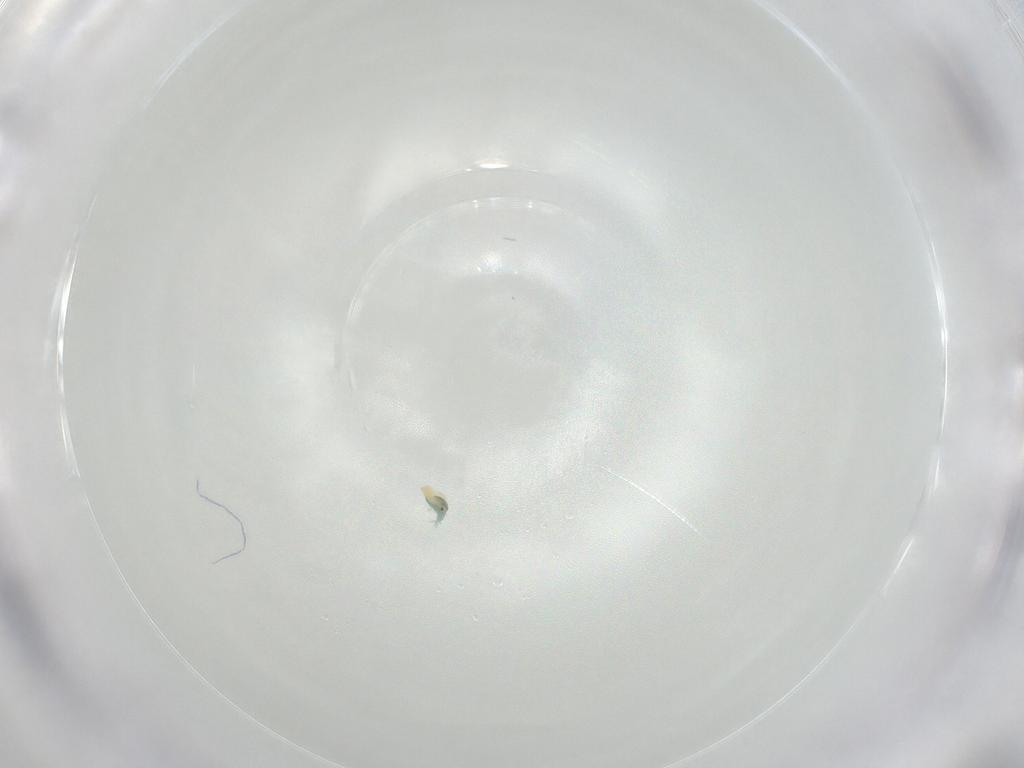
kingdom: Animalia
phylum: Arthropoda
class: Arachnida
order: Trombidiformes
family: Arrenuridae
